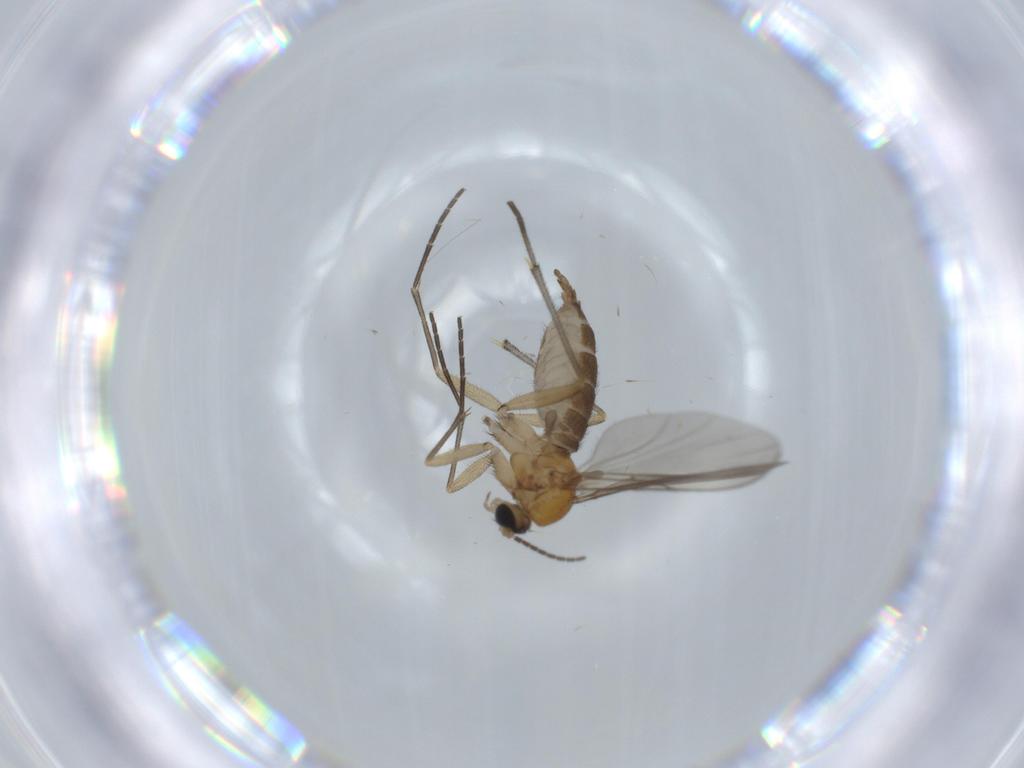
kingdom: Animalia
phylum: Arthropoda
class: Insecta
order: Diptera
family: Sciaridae
